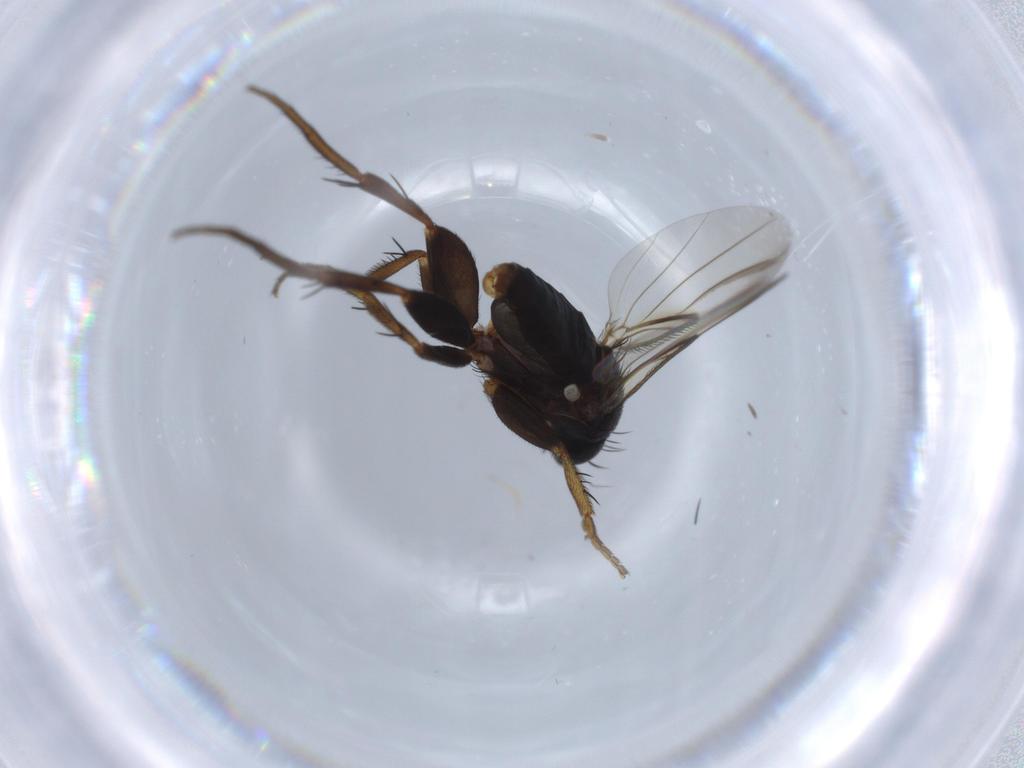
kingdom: Animalia
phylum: Arthropoda
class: Insecta
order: Diptera
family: Phoridae
